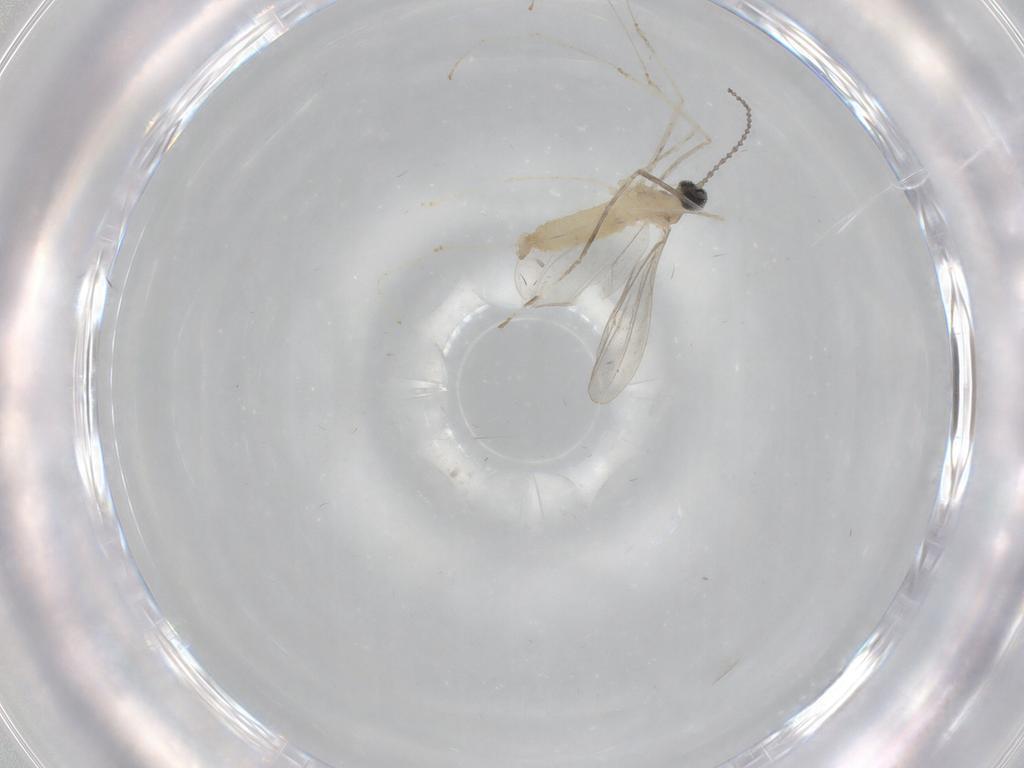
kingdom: Animalia
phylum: Arthropoda
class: Insecta
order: Diptera
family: Cecidomyiidae
